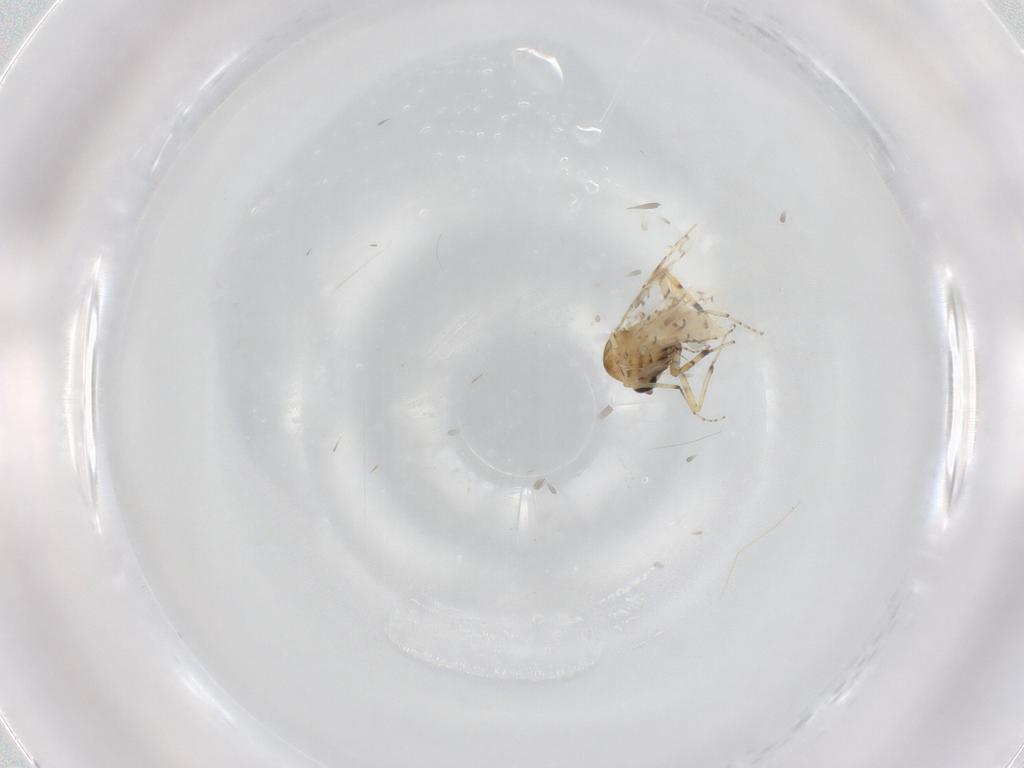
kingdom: Animalia
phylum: Arthropoda
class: Insecta
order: Diptera
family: Ceratopogonidae
